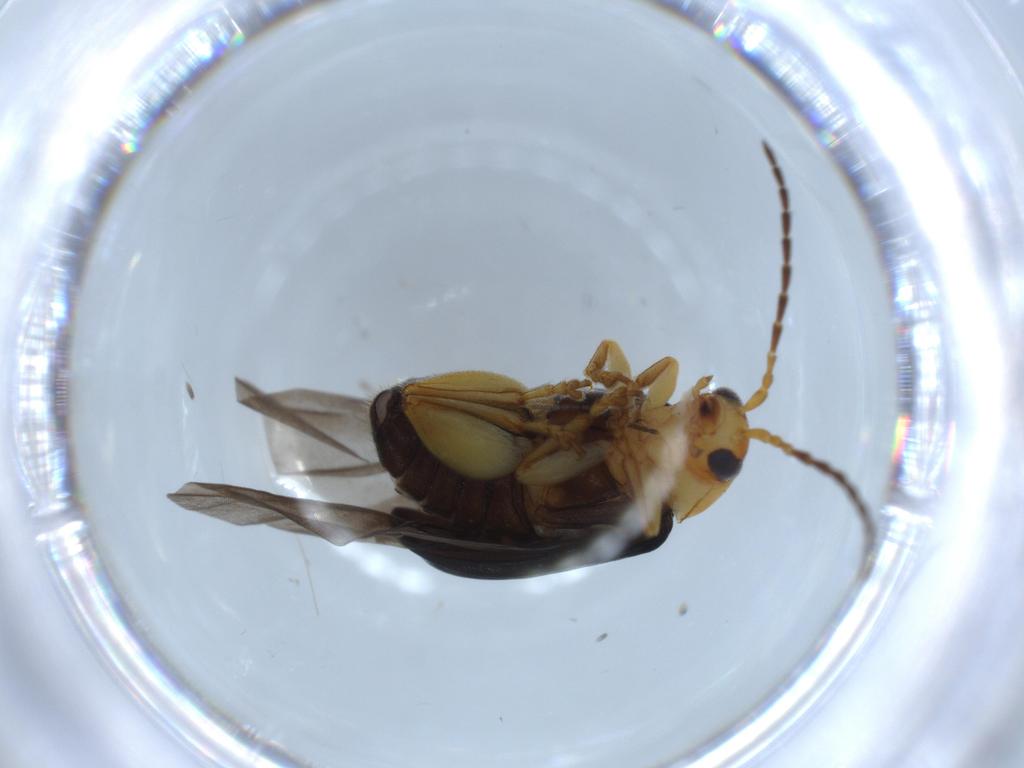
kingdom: Animalia
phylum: Arthropoda
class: Insecta
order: Coleoptera
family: Chrysomelidae
